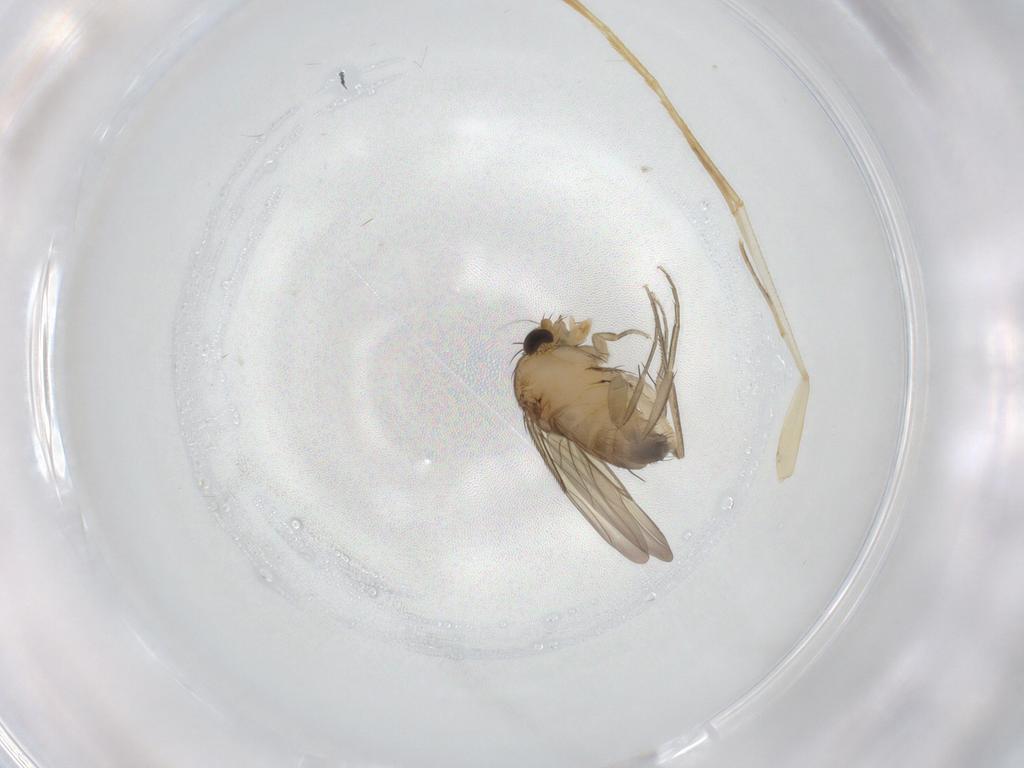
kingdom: Animalia
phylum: Arthropoda
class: Insecta
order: Diptera
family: Phoridae
